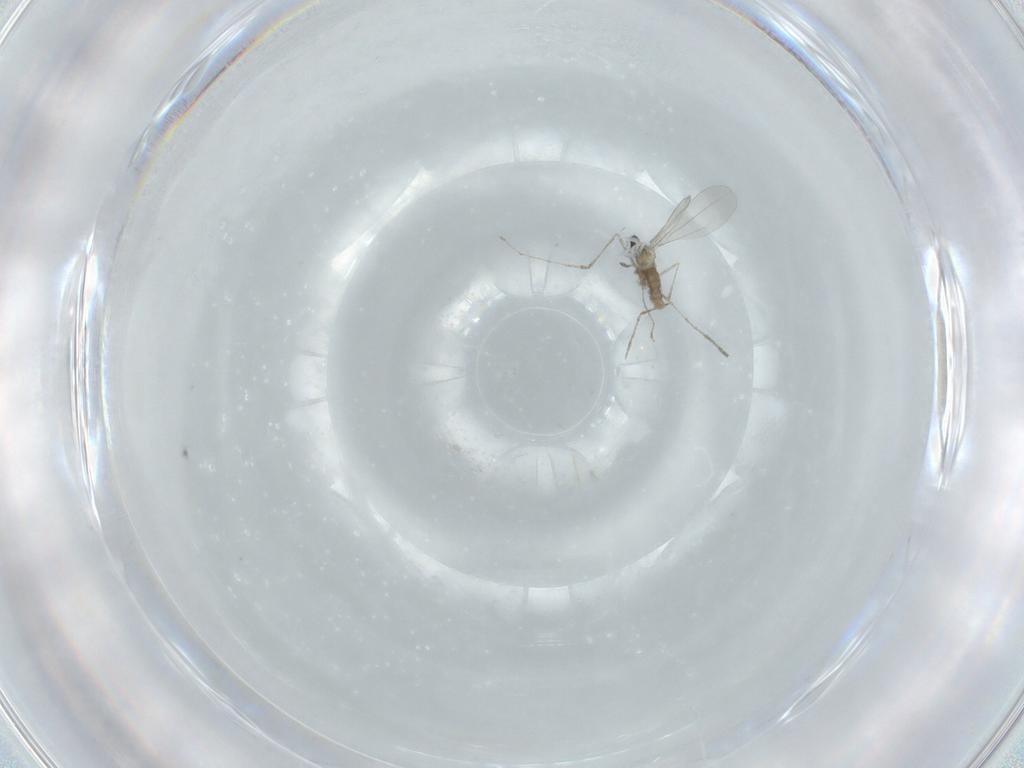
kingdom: Animalia
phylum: Arthropoda
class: Insecta
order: Diptera
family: Cecidomyiidae
